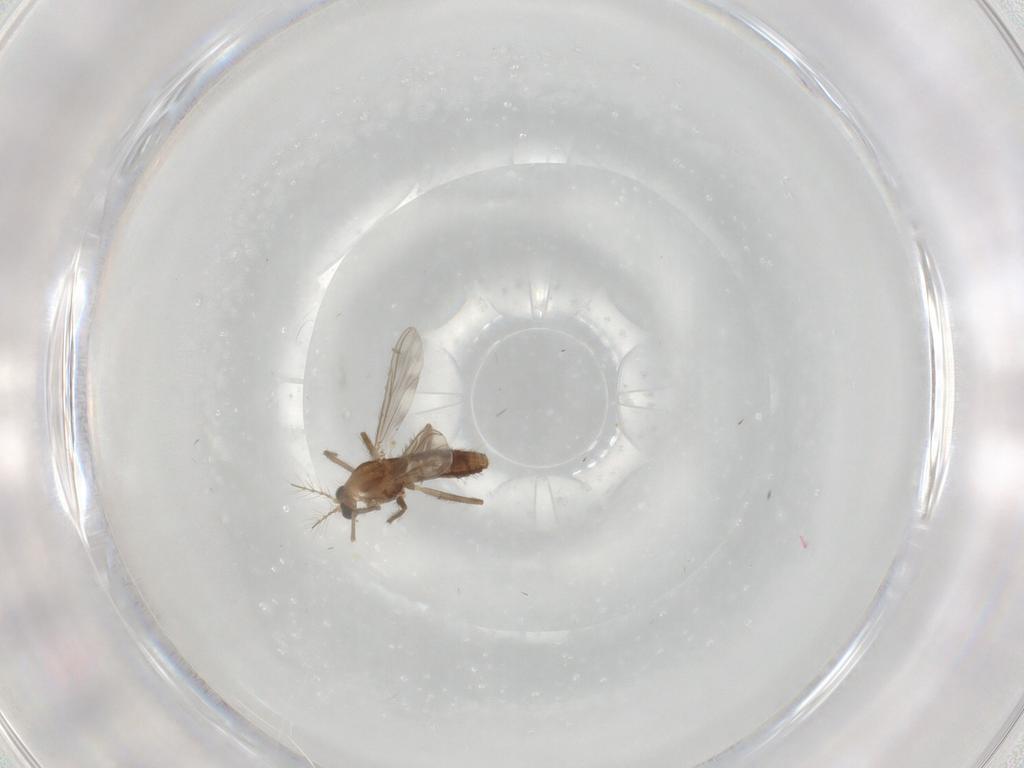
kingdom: Animalia
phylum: Arthropoda
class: Insecta
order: Diptera
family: Chironomidae
